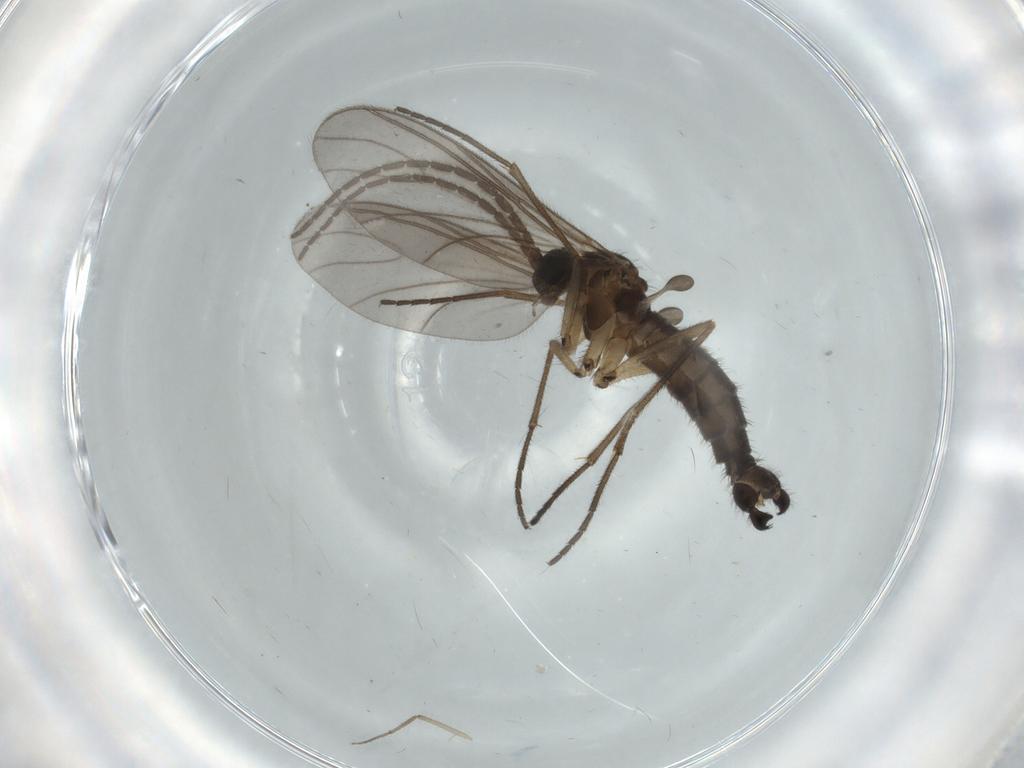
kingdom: Animalia
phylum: Arthropoda
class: Insecta
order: Diptera
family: Sciaridae
